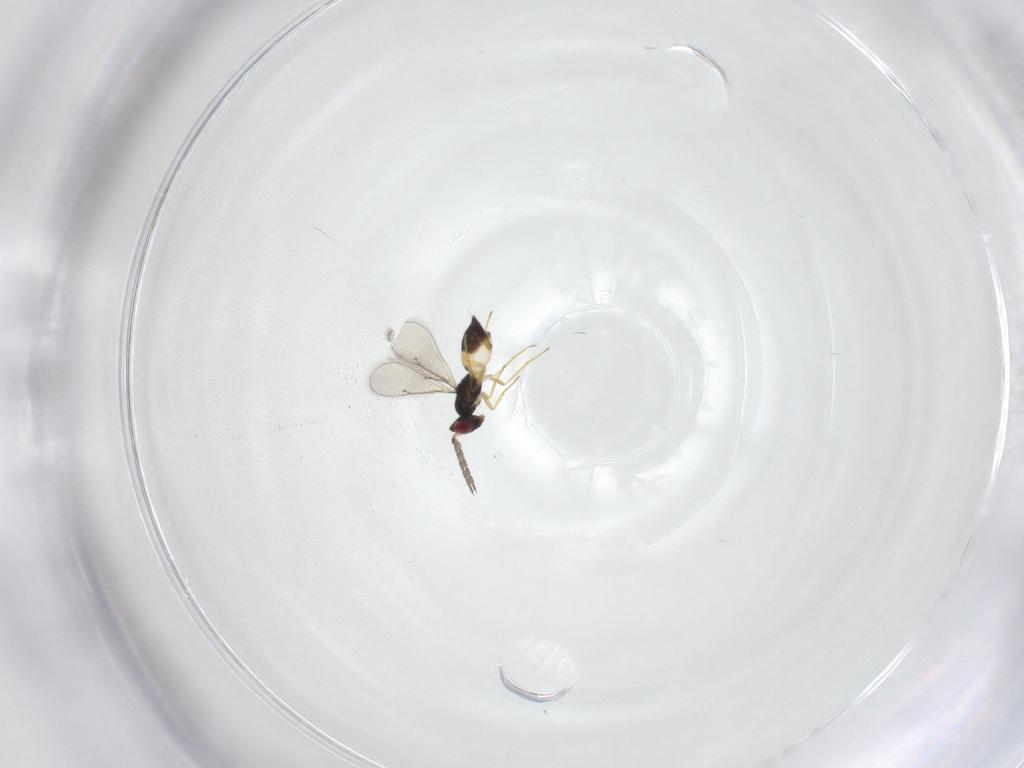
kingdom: Animalia
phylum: Arthropoda
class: Insecta
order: Hymenoptera
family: Eulophidae
